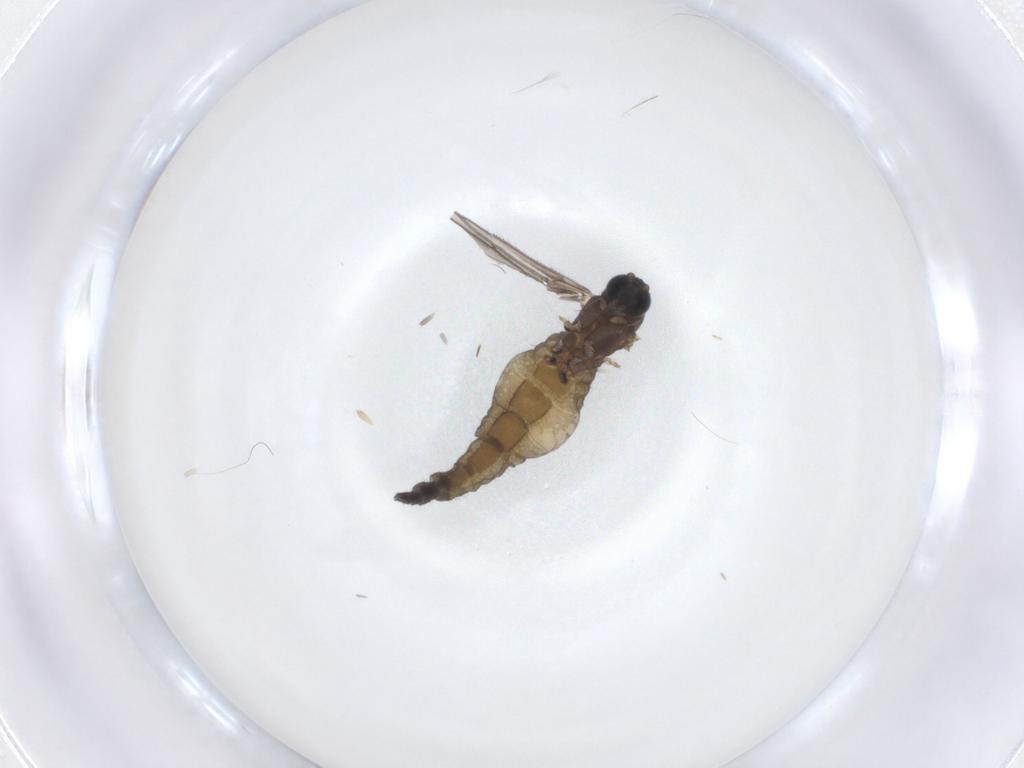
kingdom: Animalia
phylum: Arthropoda
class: Insecta
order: Diptera
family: Sciaridae
